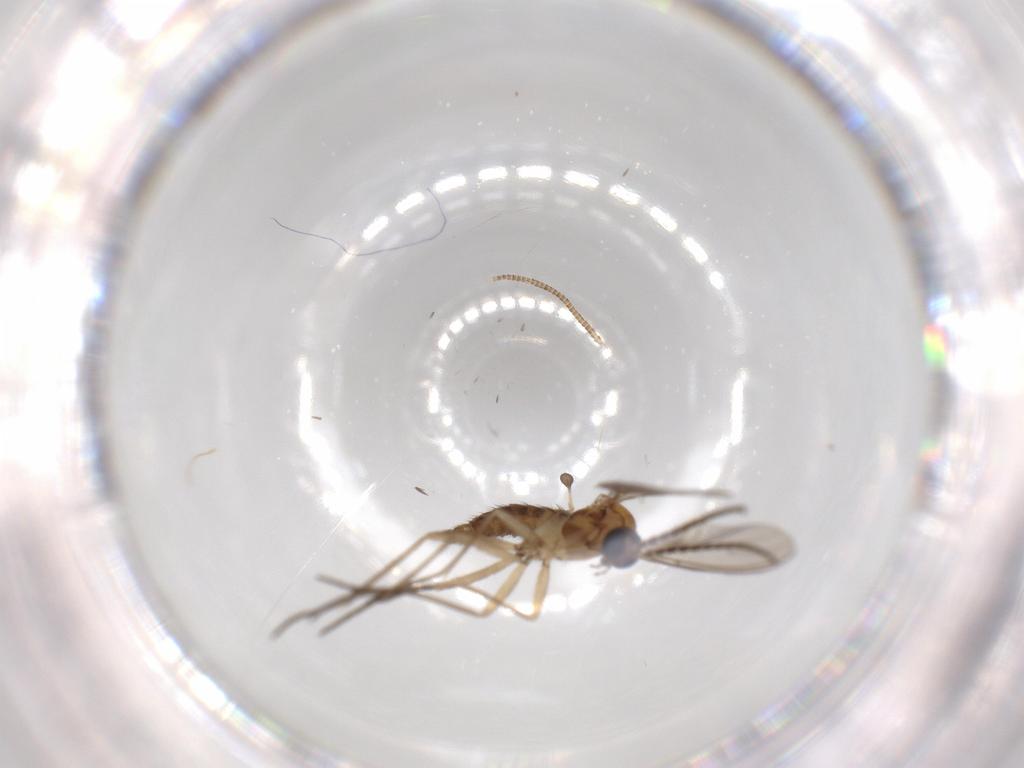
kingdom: Animalia
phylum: Arthropoda
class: Insecta
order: Diptera
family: Sciaridae
